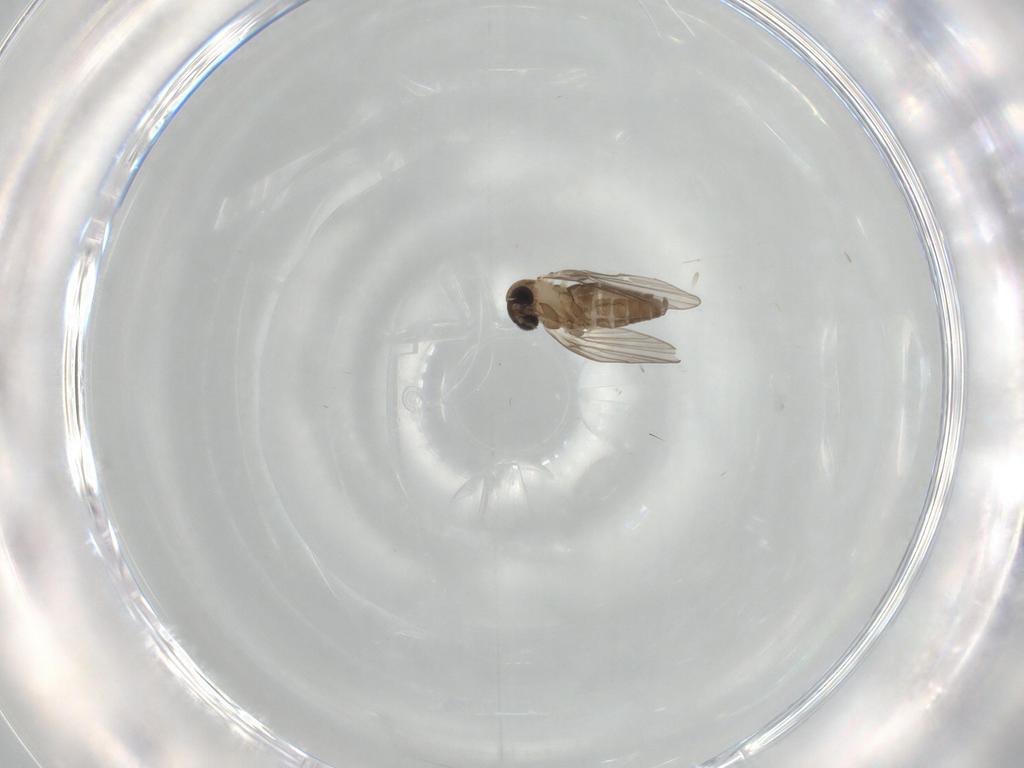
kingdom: Animalia
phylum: Arthropoda
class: Insecta
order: Diptera
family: Psychodidae
